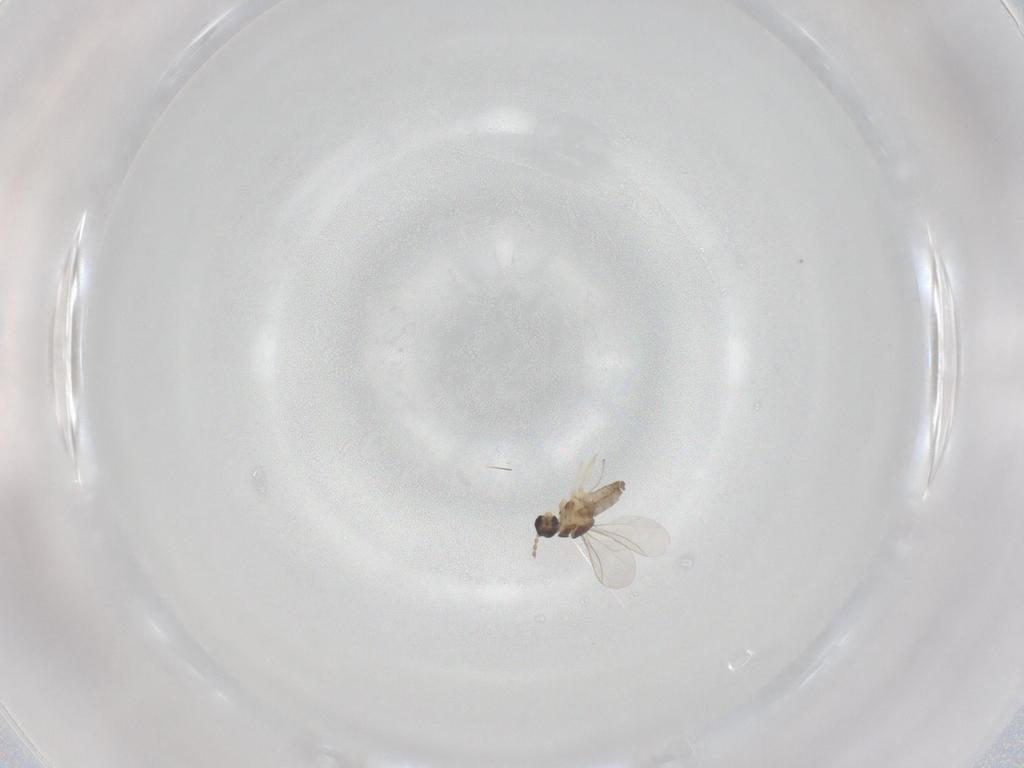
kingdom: Animalia
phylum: Arthropoda
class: Insecta
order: Diptera
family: Cecidomyiidae
